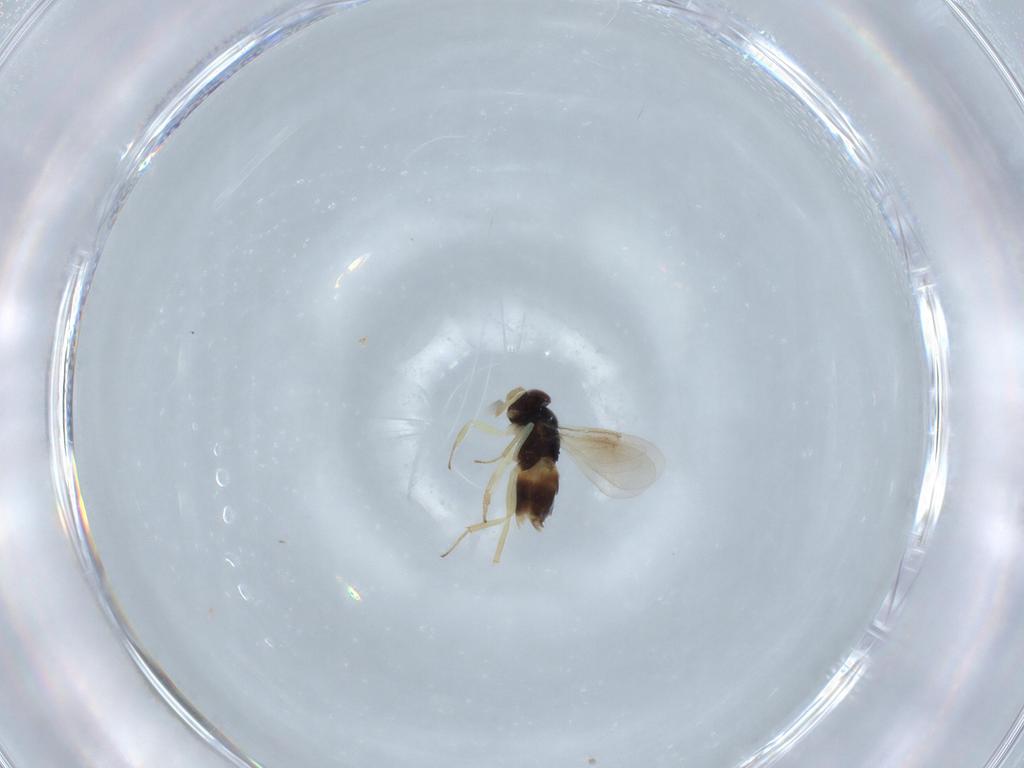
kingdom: Animalia
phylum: Arthropoda
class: Insecta
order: Hymenoptera
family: Aphelinidae
